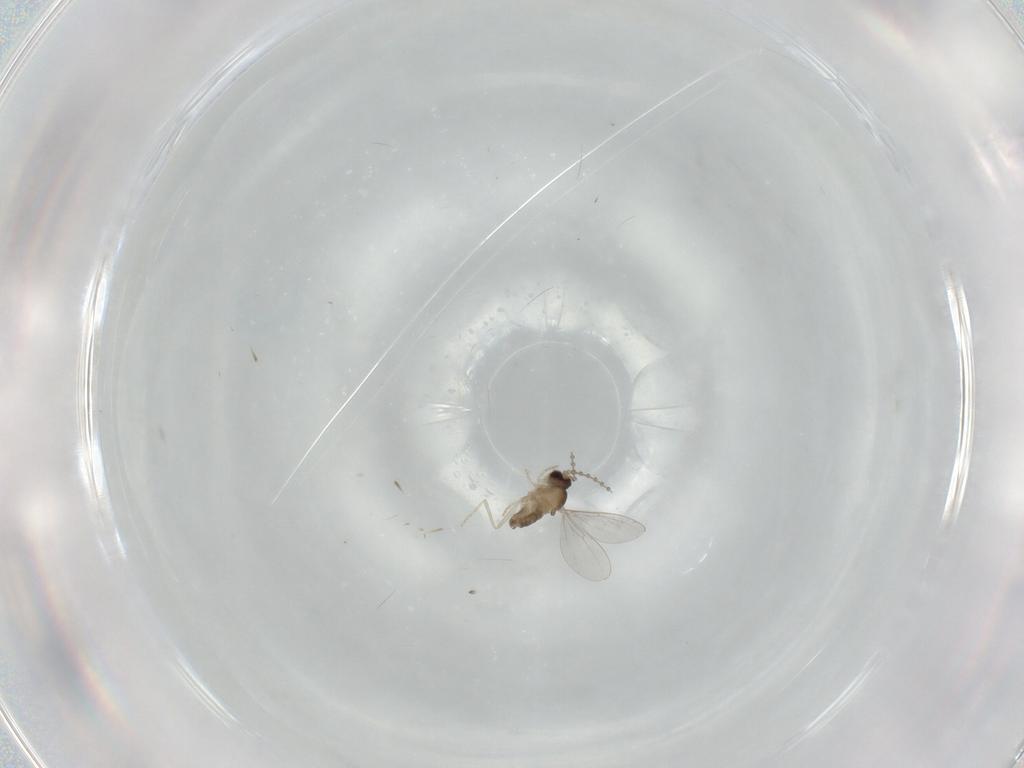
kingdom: Animalia
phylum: Arthropoda
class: Insecta
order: Diptera
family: Cecidomyiidae
